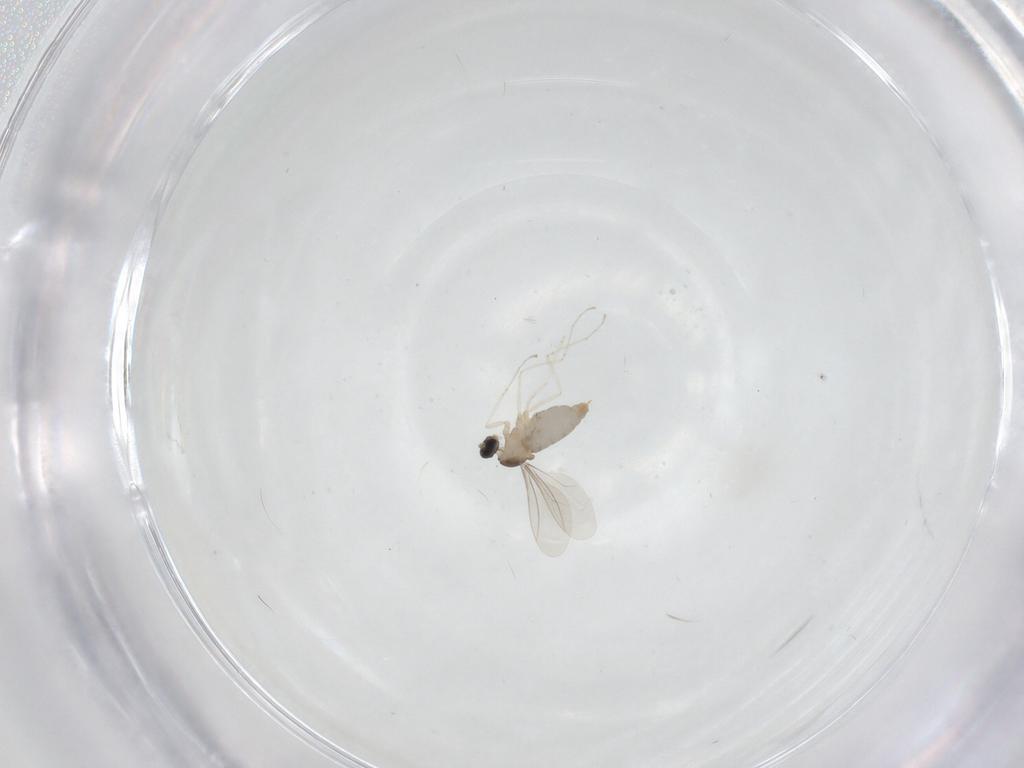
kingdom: Animalia
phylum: Arthropoda
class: Insecta
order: Diptera
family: Cecidomyiidae
